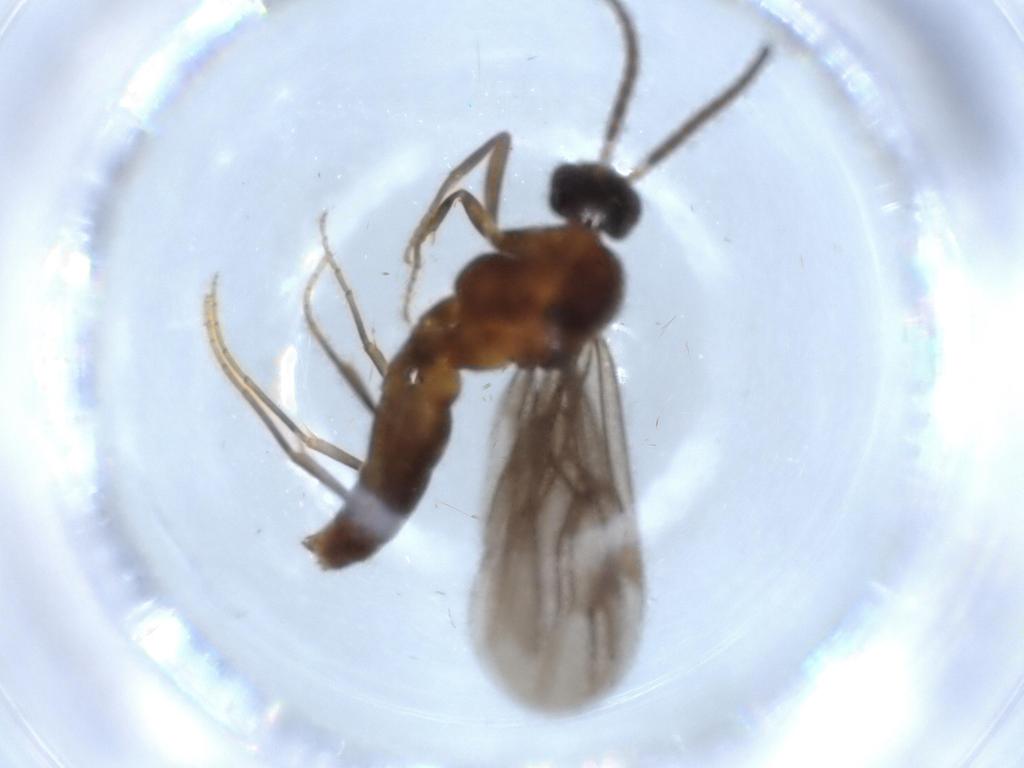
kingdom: Animalia
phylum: Arthropoda
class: Insecta
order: Hymenoptera
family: Formicidae
